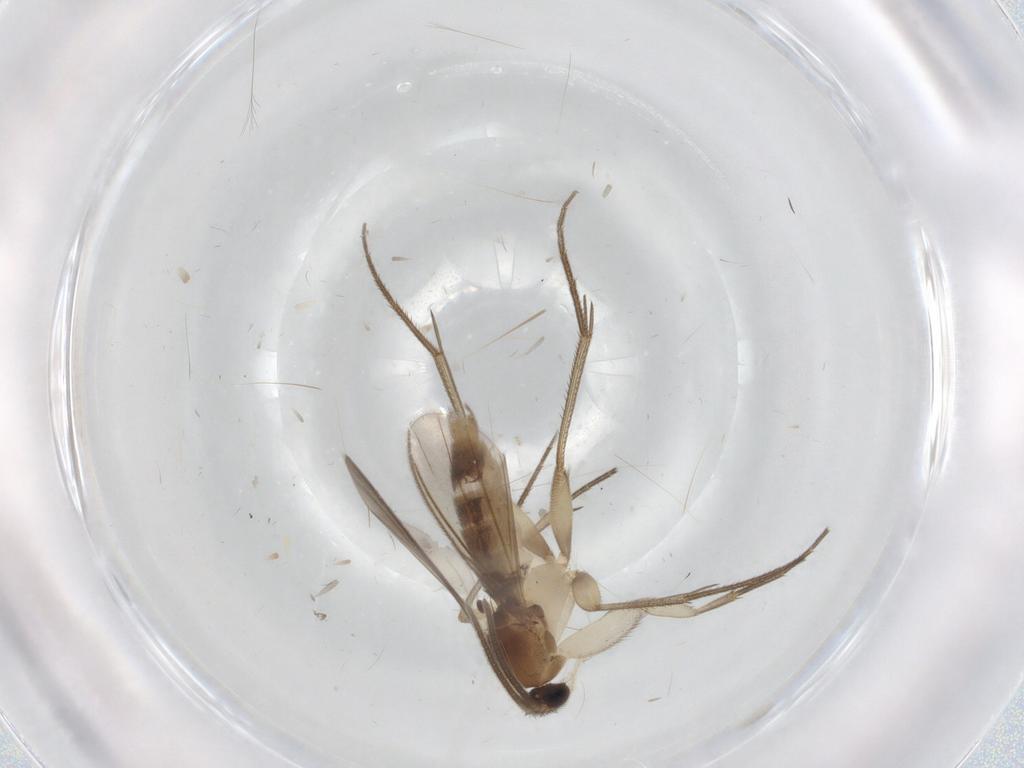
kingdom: Animalia
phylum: Arthropoda
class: Insecta
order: Diptera
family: Mycetophilidae
